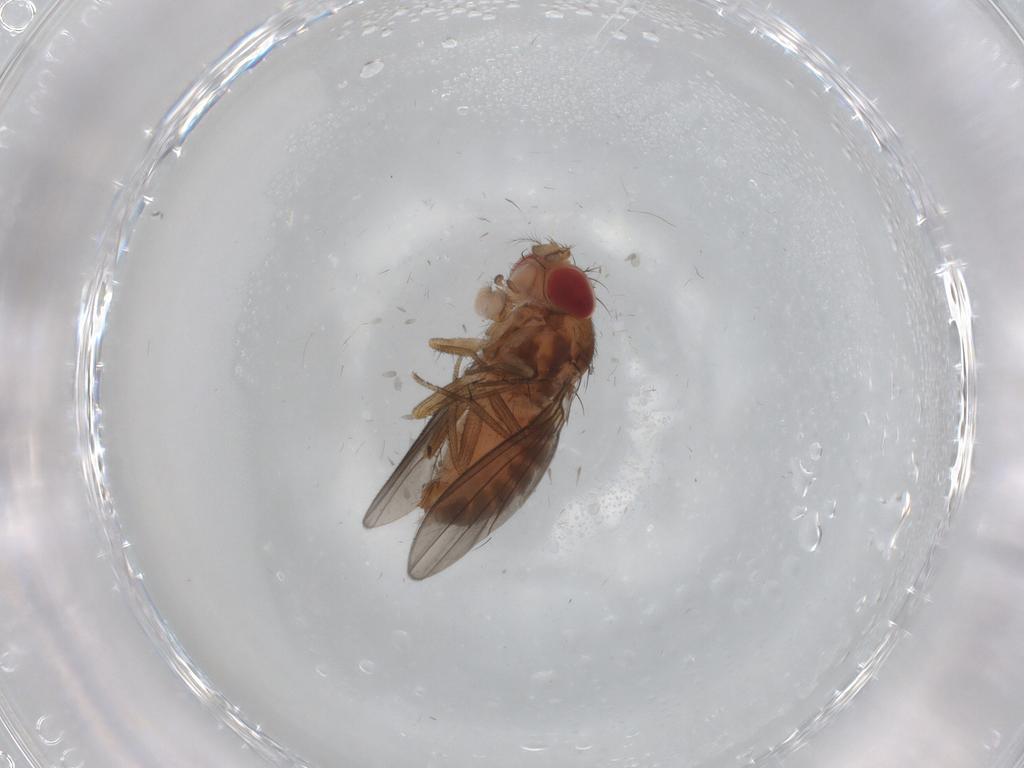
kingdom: Animalia
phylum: Arthropoda
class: Insecta
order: Diptera
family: Drosophilidae
